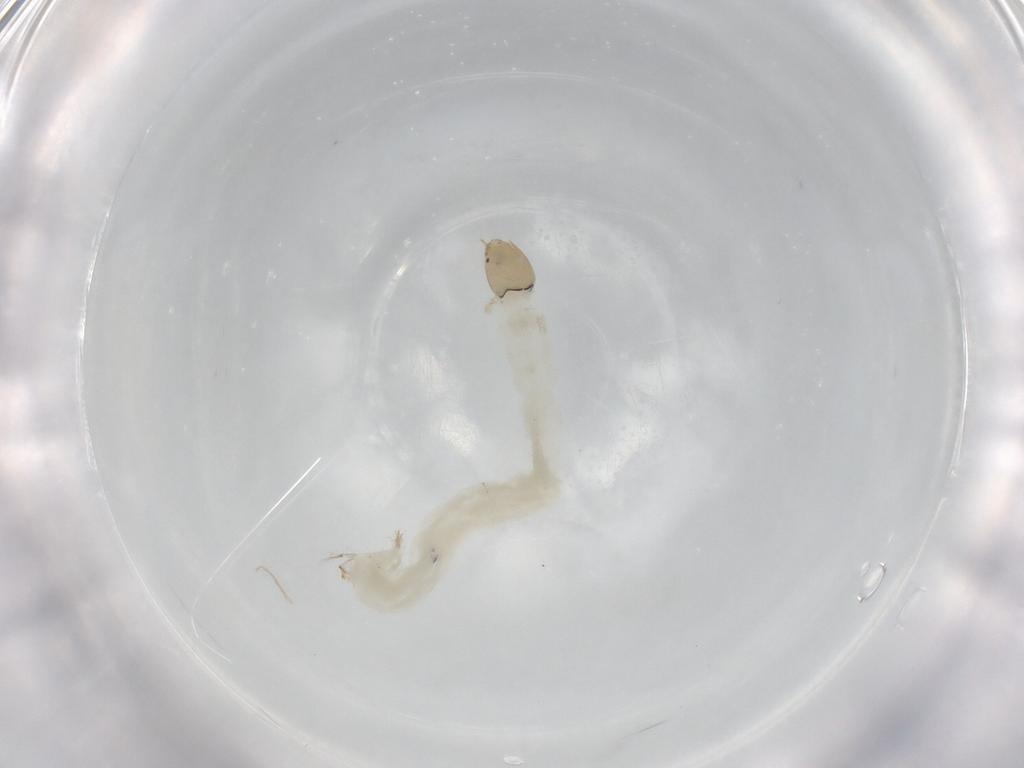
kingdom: Animalia
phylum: Arthropoda
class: Insecta
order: Diptera
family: Chironomidae
